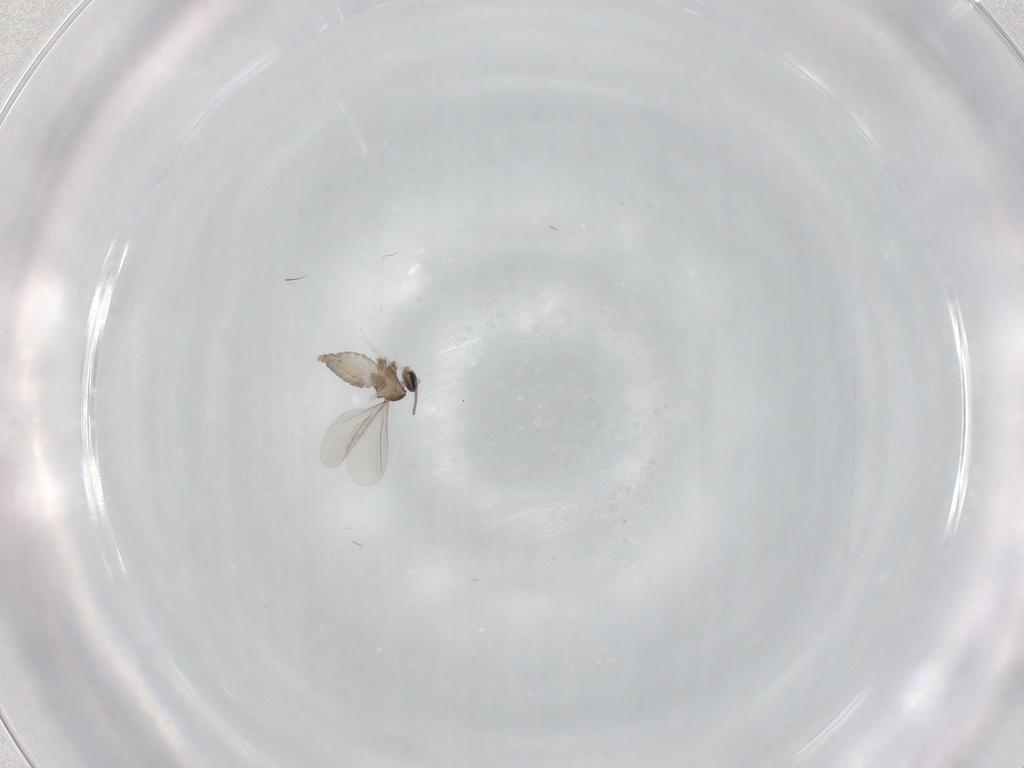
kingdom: Animalia
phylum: Arthropoda
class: Insecta
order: Diptera
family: Cecidomyiidae
